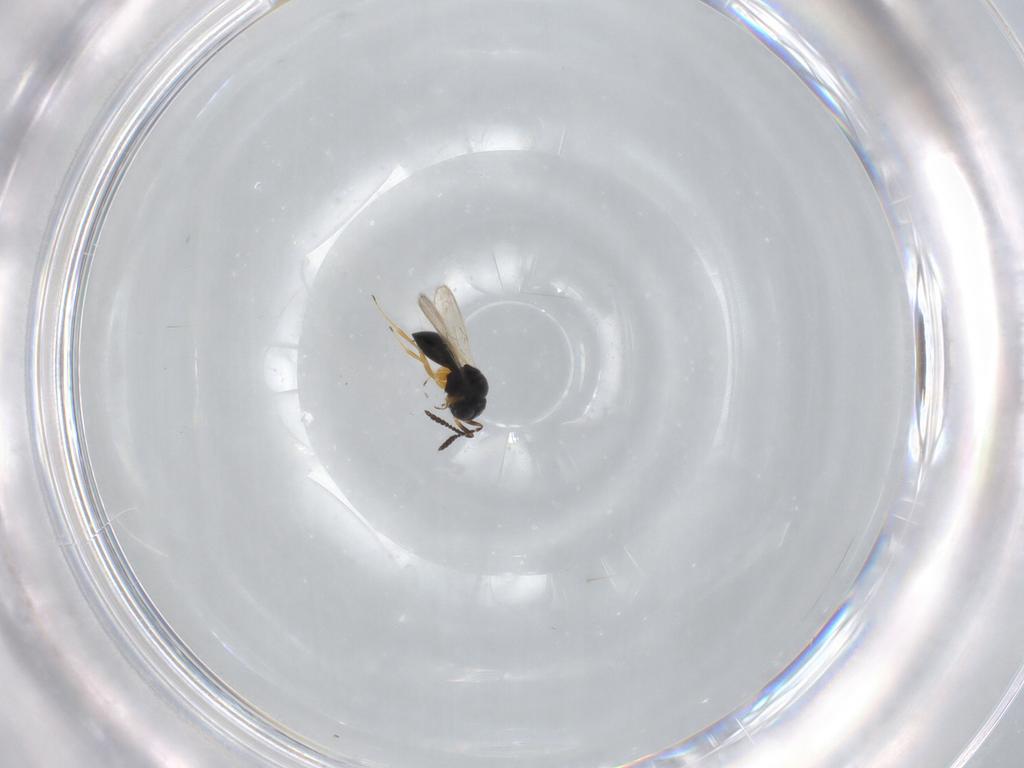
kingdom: Animalia
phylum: Arthropoda
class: Insecta
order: Hymenoptera
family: Scelionidae
